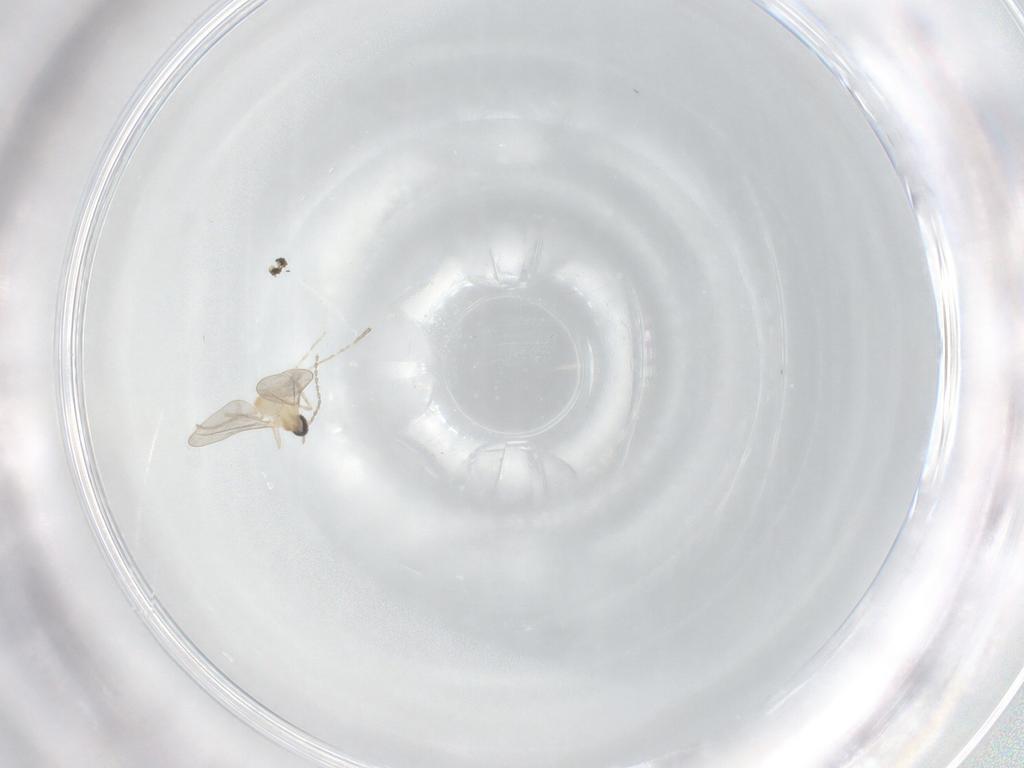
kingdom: Animalia
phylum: Arthropoda
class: Insecta
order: Diptera
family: Cecidomyiidae
